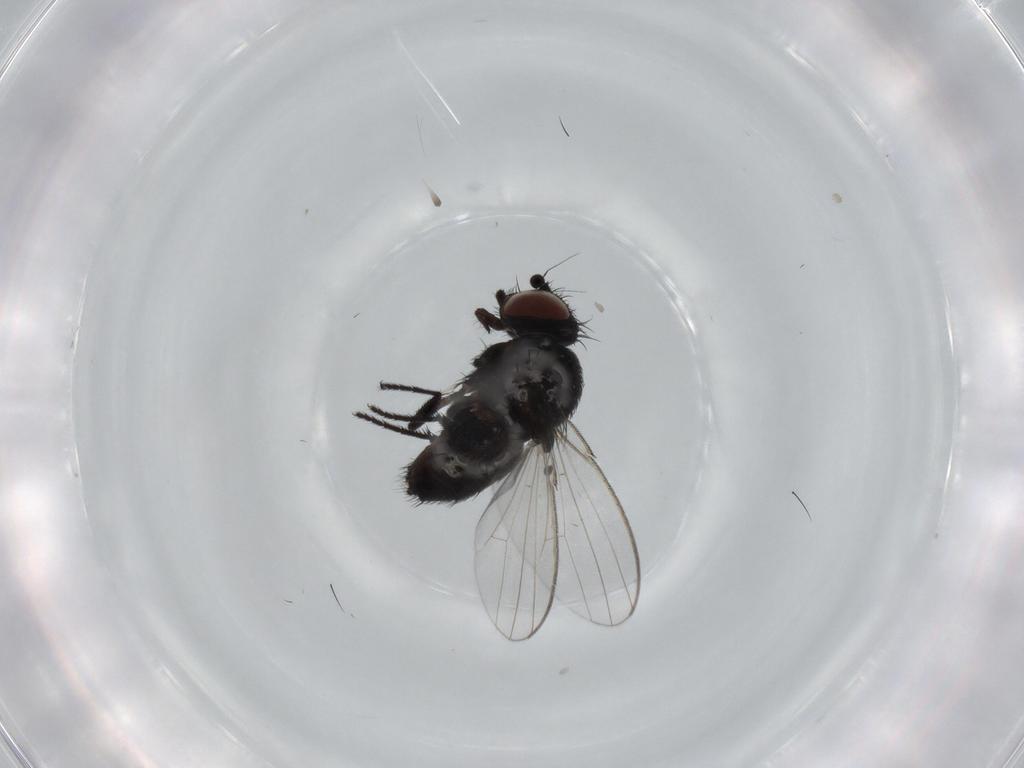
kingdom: Animalia
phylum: Arthropoda
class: Insecta
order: Diptera
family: Milichiidae
